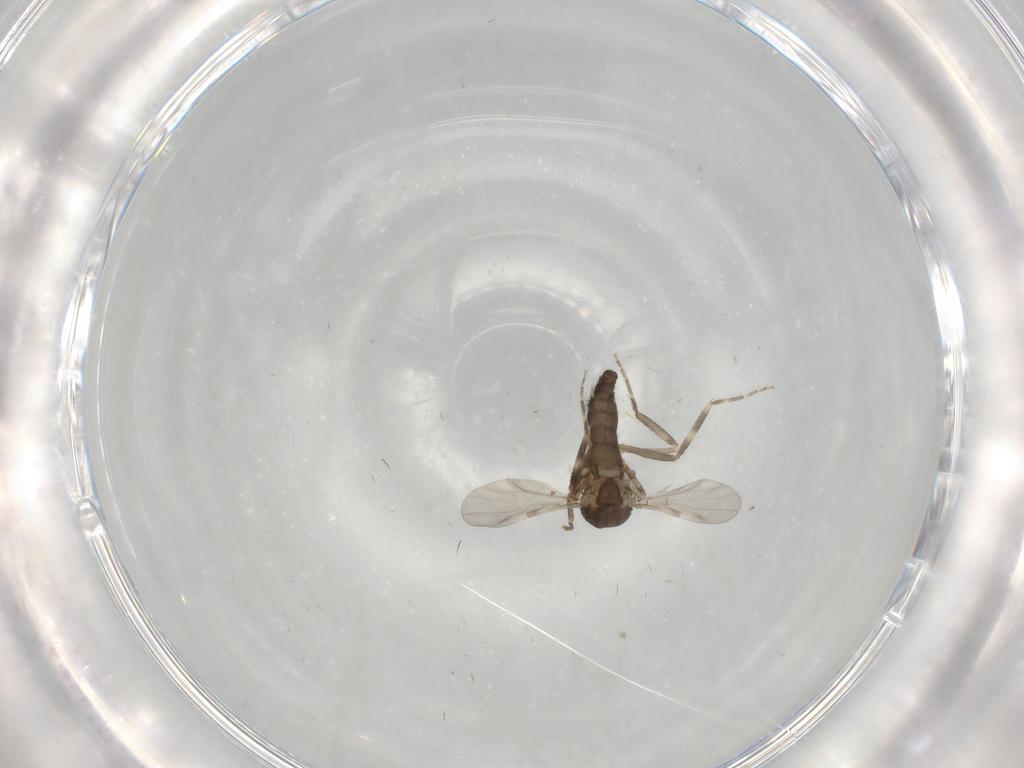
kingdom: Animalia
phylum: Arthropoda
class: Insecta
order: Diptera
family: Ceratopogonidae
